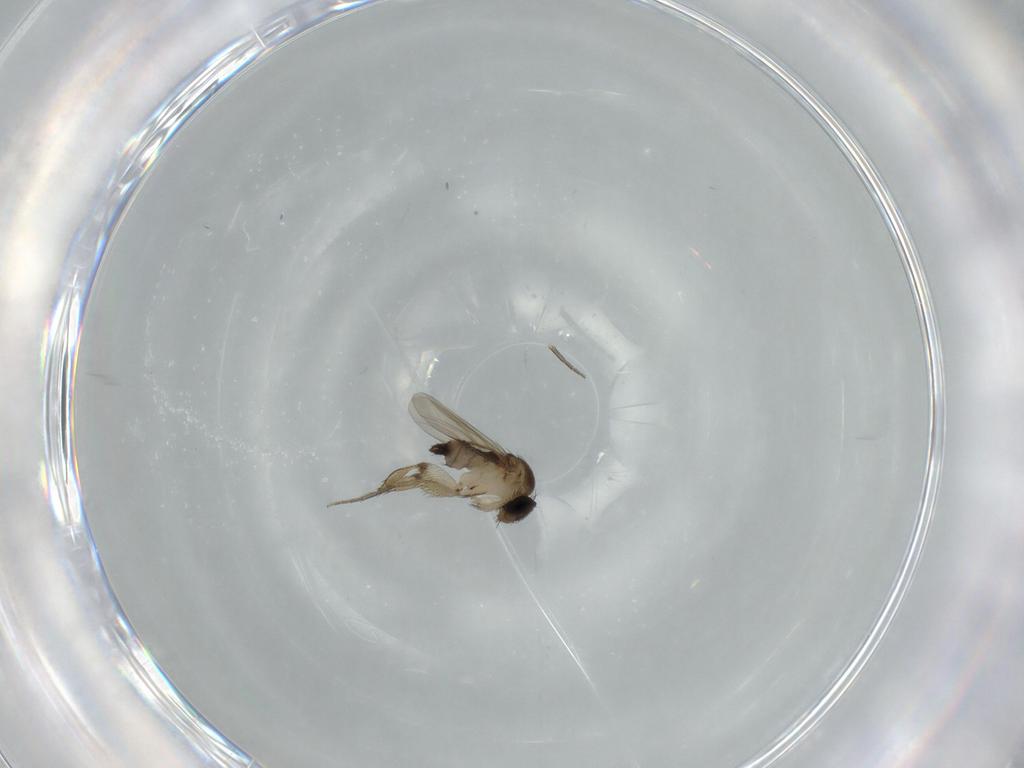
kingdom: Animalia
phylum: Arthropoda
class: Insecta
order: Diptera
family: Phoridae
